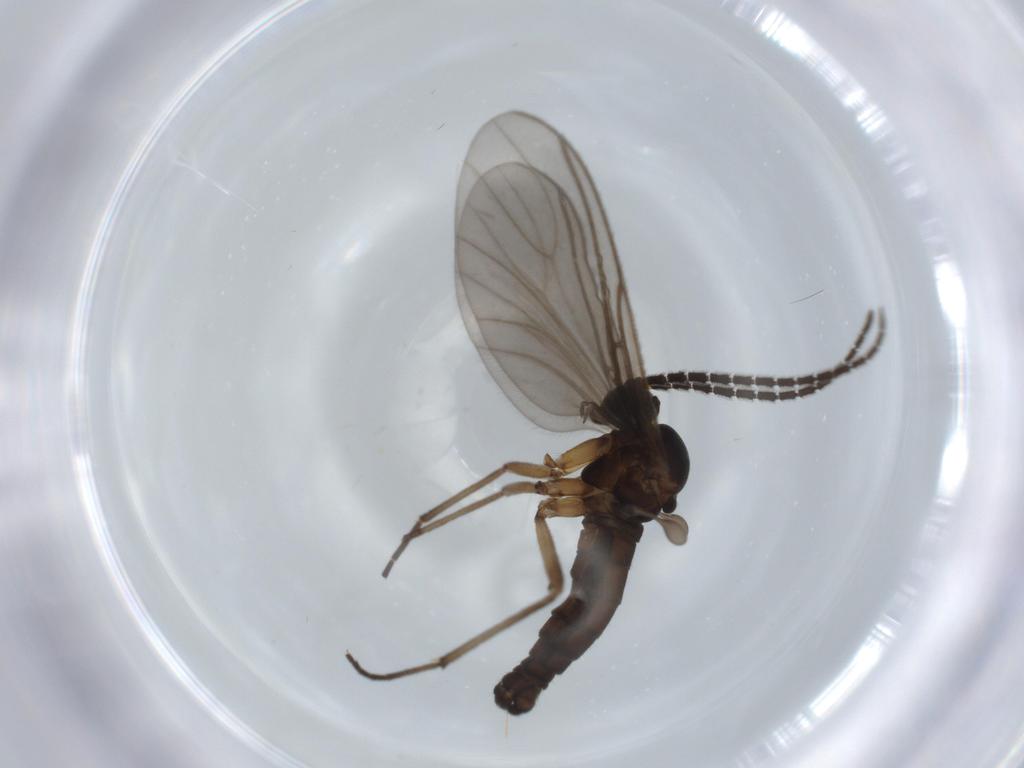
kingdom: Animalia
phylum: Arthropoda
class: Insecta
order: Diptera
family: Sciaridae
